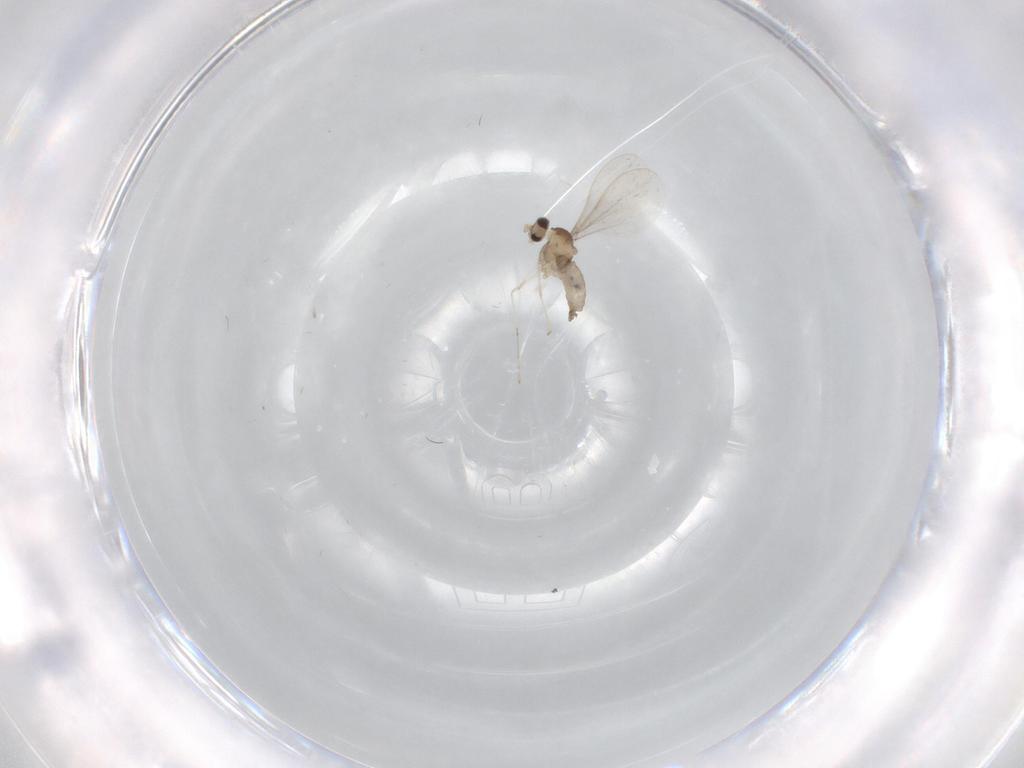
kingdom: Animalia
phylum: Arthropoda
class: Insecta
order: Diptera
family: Cecidomyiidae
